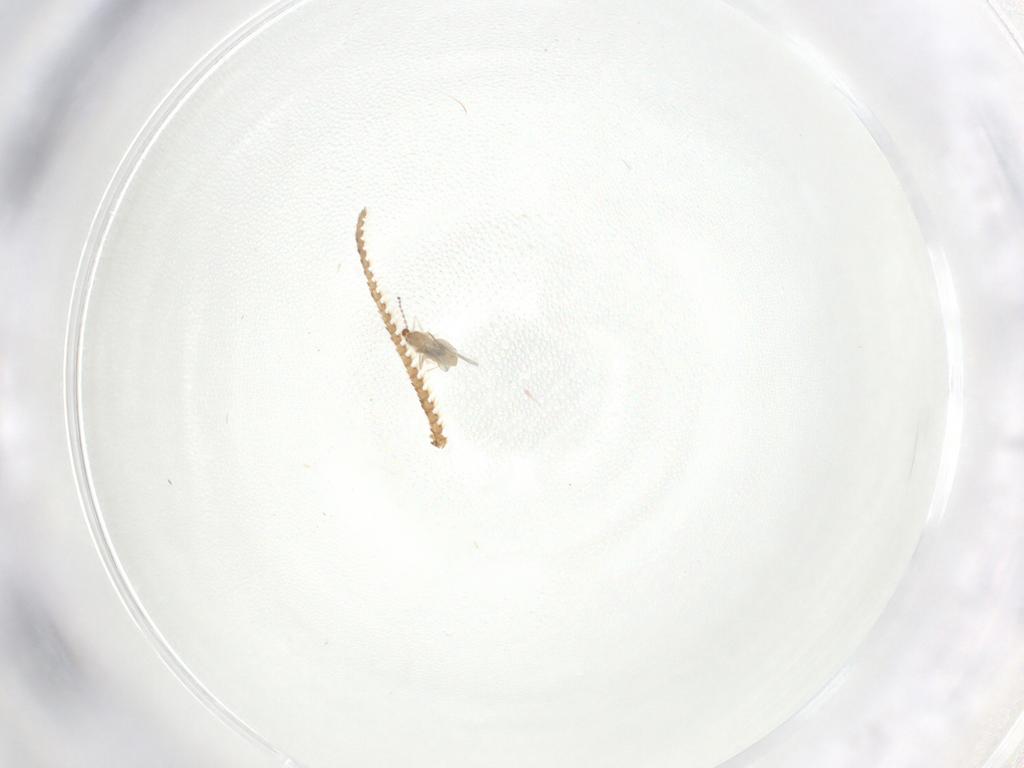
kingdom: Animalia
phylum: Arthropoda
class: Insecta
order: Diptera
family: Cecidomyiidae
